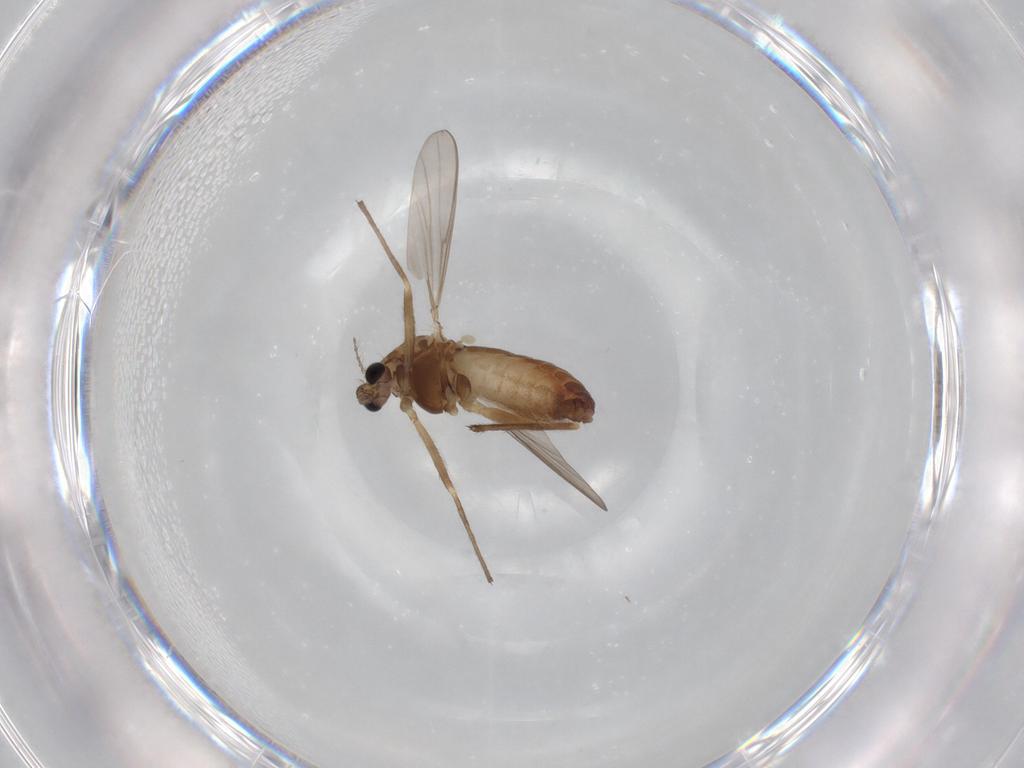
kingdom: Animalia
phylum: Arthropoda
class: Insecta
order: Diptera
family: Chironomidae
